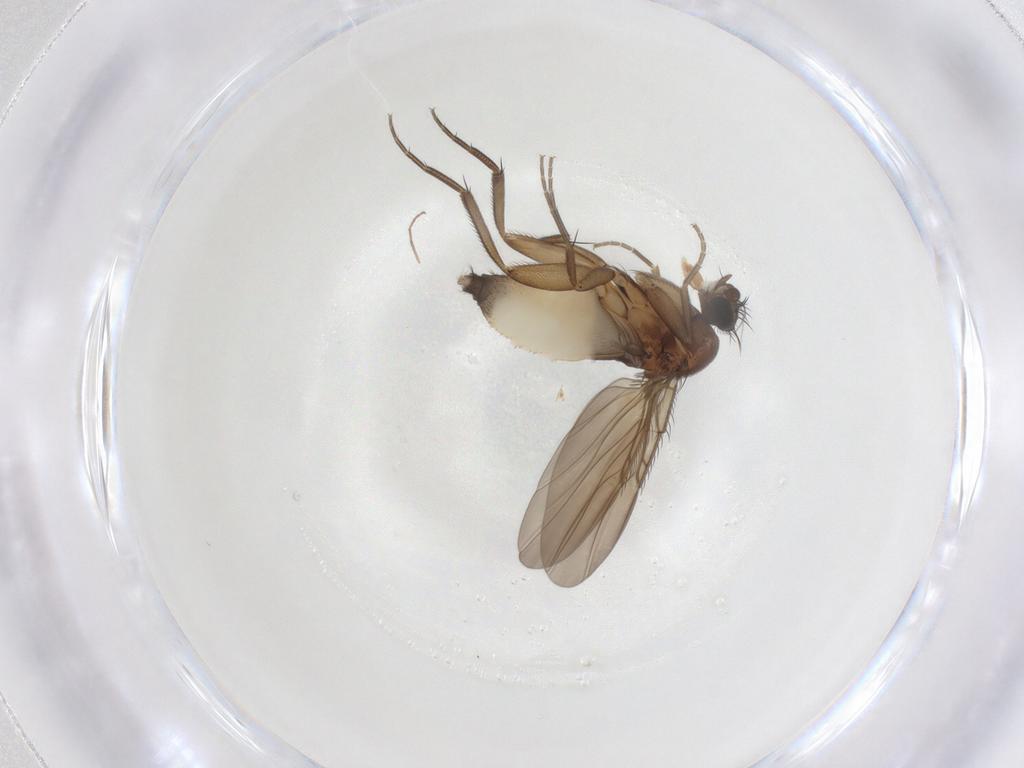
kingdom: Animalia
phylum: Arthropoda
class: Insecta
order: Diptera
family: Phoridae
